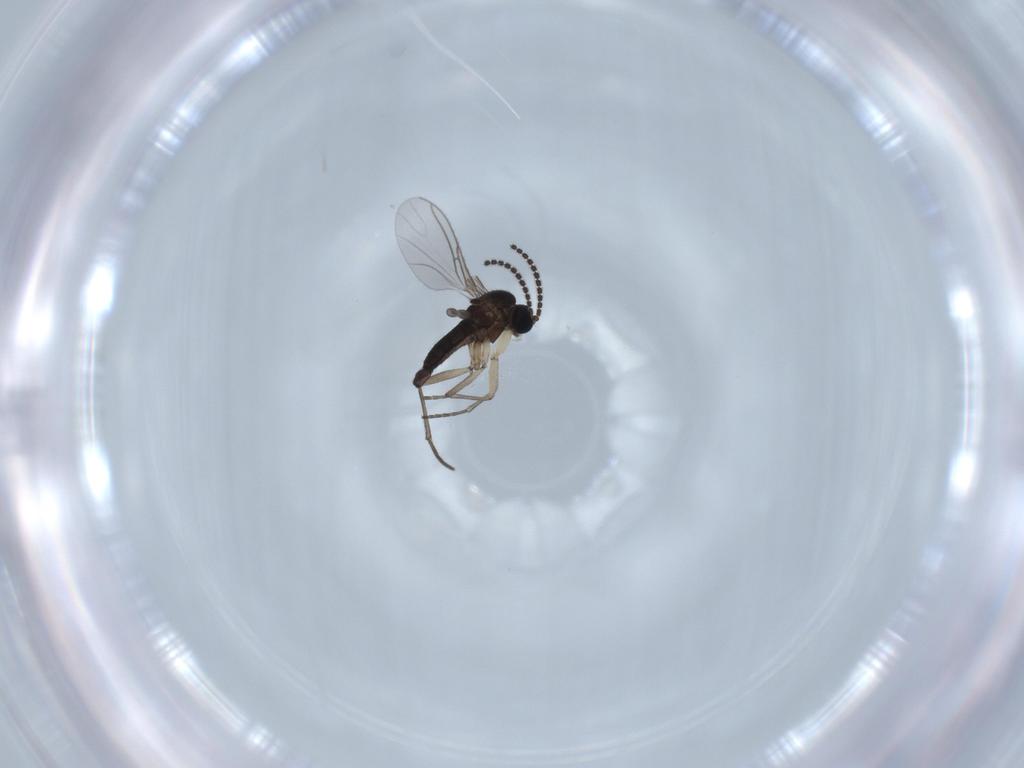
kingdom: Animalia
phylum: Arthropoda
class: Insecta
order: Diptera
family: Sciaridae
